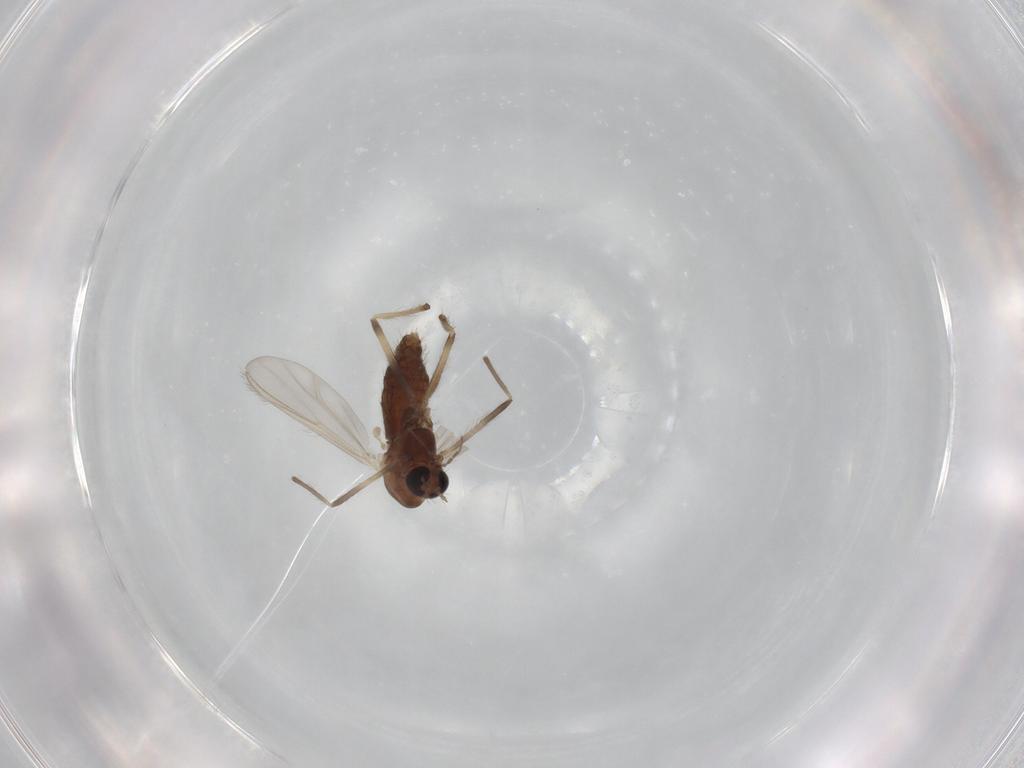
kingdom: Animalia
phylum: Arthropoda
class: Insecta
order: Diptera
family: Chironomidae
